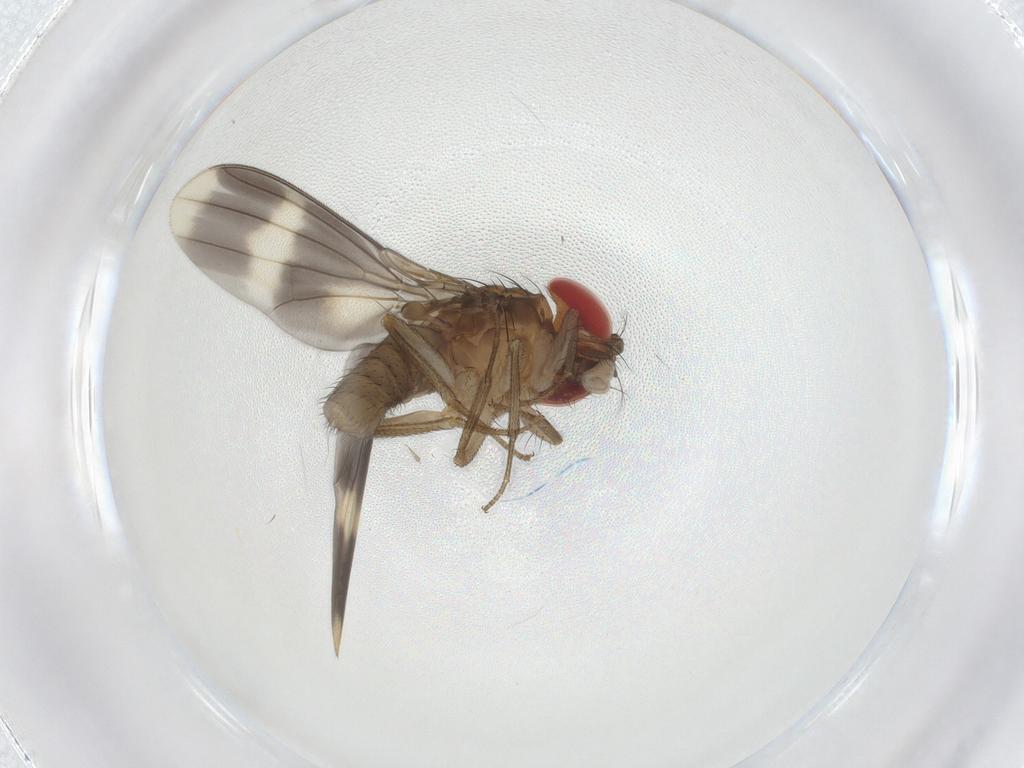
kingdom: Animalia
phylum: Arthropoda
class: Insecta
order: Diptera
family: Drosophilidae
